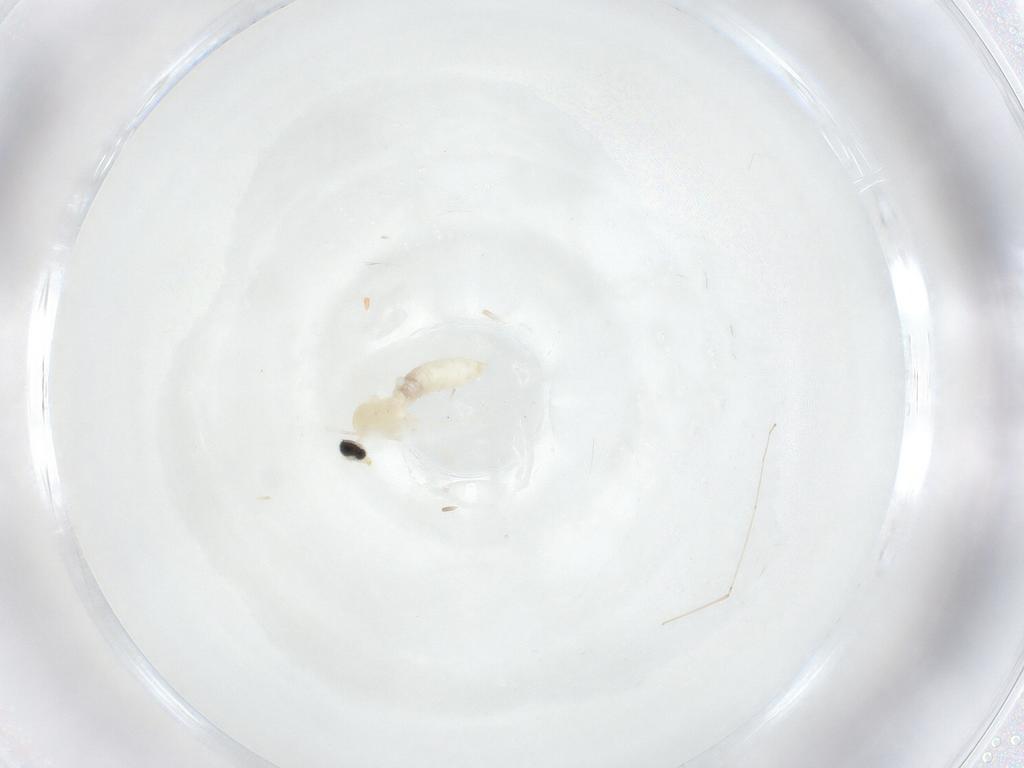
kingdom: Animalia
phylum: Arthropoda
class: Insecta
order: Diptera
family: Cecidomyiidae
